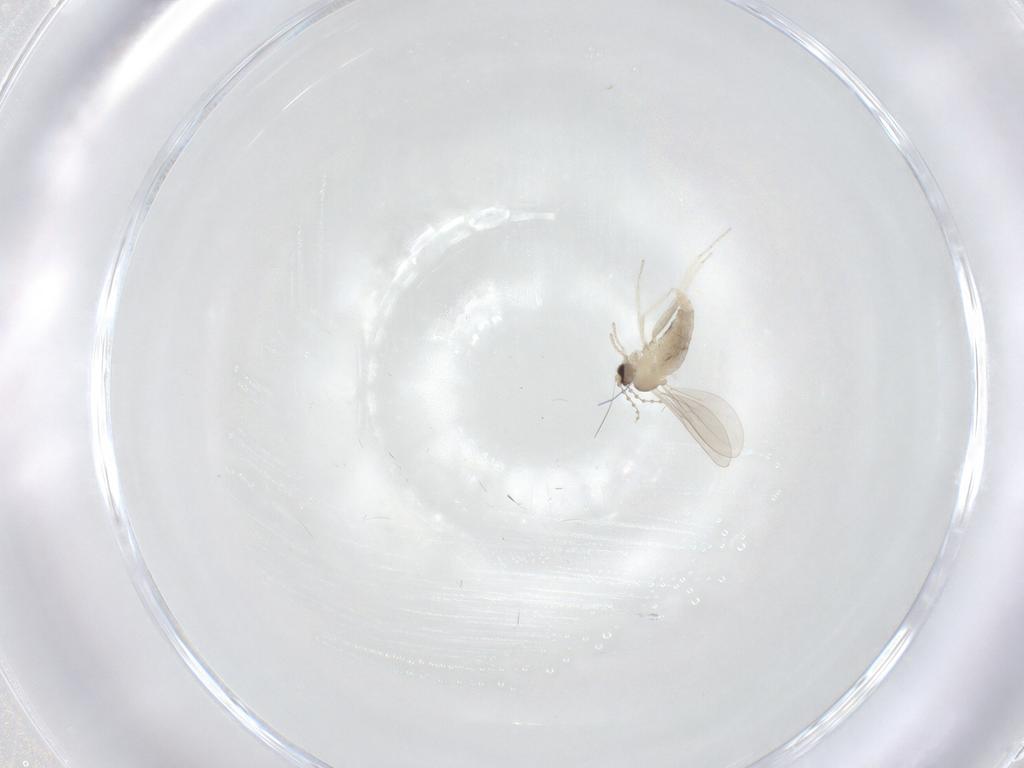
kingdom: Animalia
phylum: Arthropoda
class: Insecta
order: Diptera
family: Cecidomyiidae
